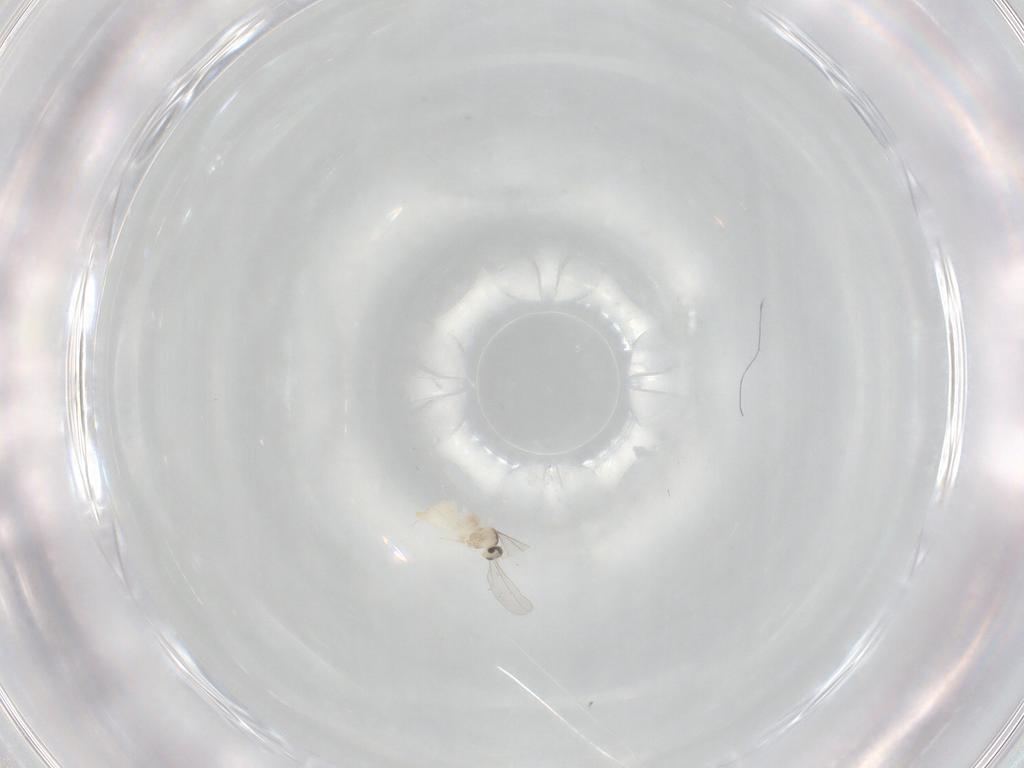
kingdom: Animalia
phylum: Arthropoda
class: Insecta
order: Diptera
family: Cecidomyiidae
